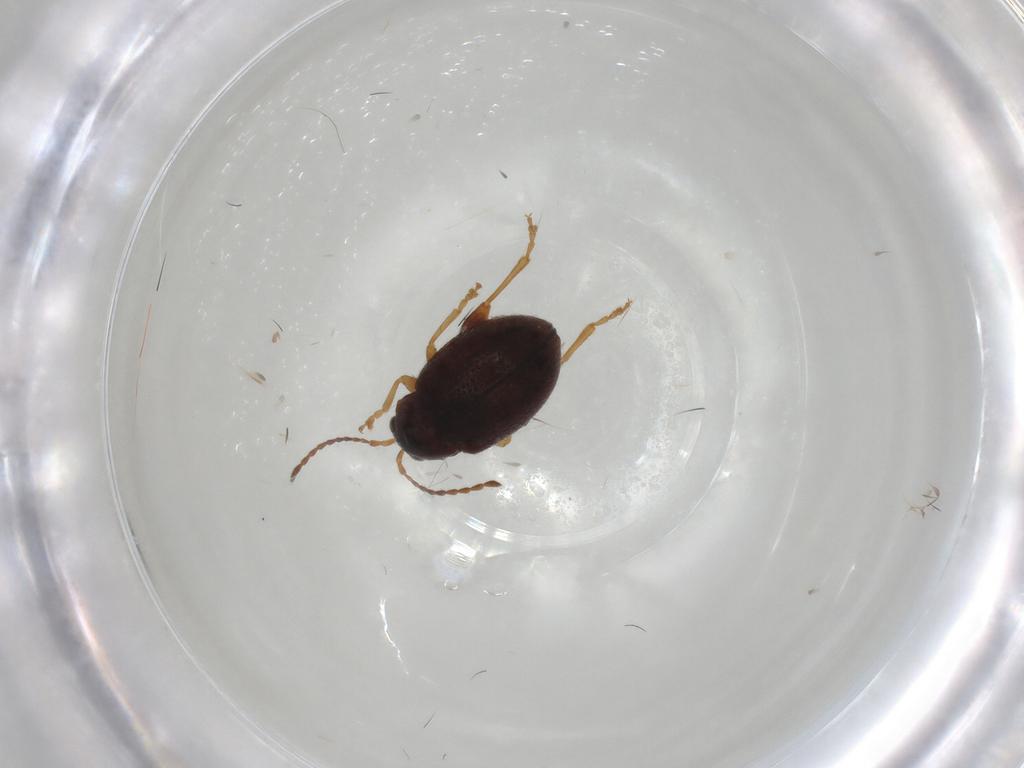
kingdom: Animalia
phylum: Arthropoda
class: Insecta
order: Coleoptera
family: Chrysomelidae
